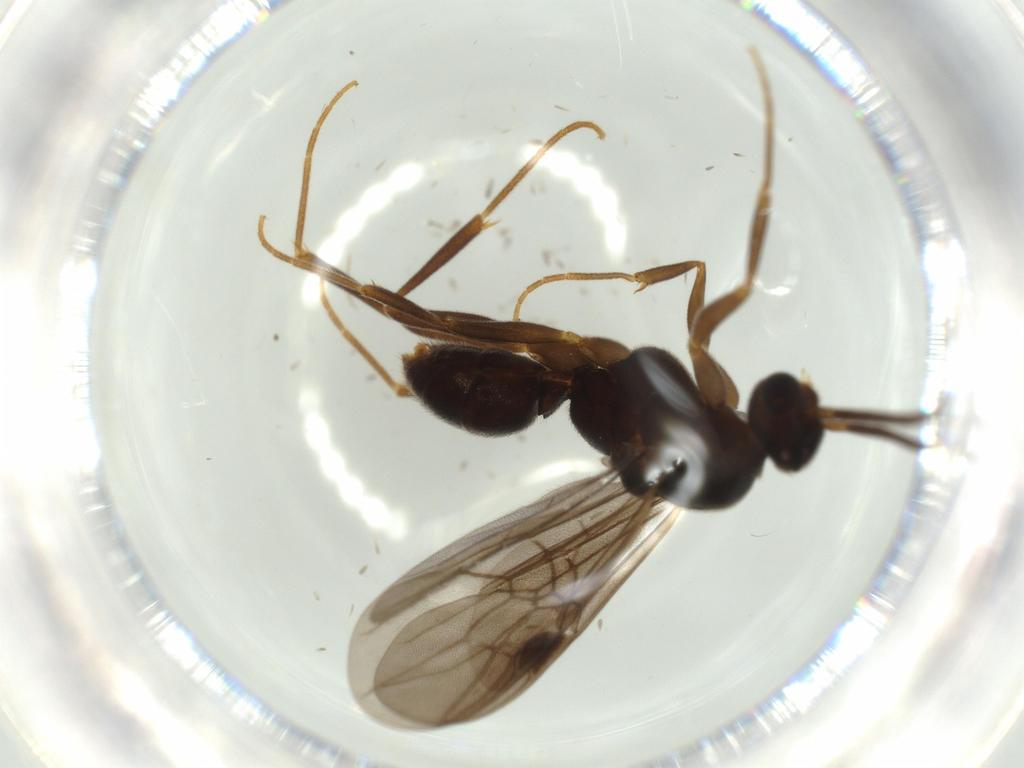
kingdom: Animalia
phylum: Arthropoda
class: Insecta
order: Hymenoptera
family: Formicidae
